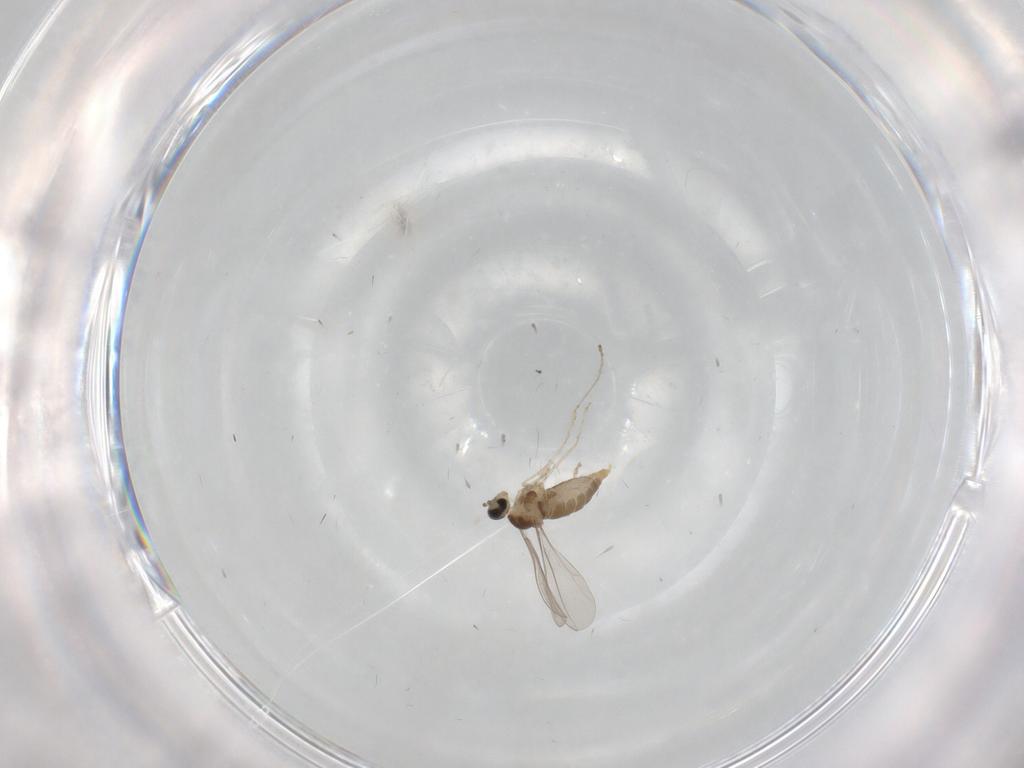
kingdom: Animalia
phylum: Arthropoda
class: Insecta
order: Diptera
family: Cecidomyiidae
